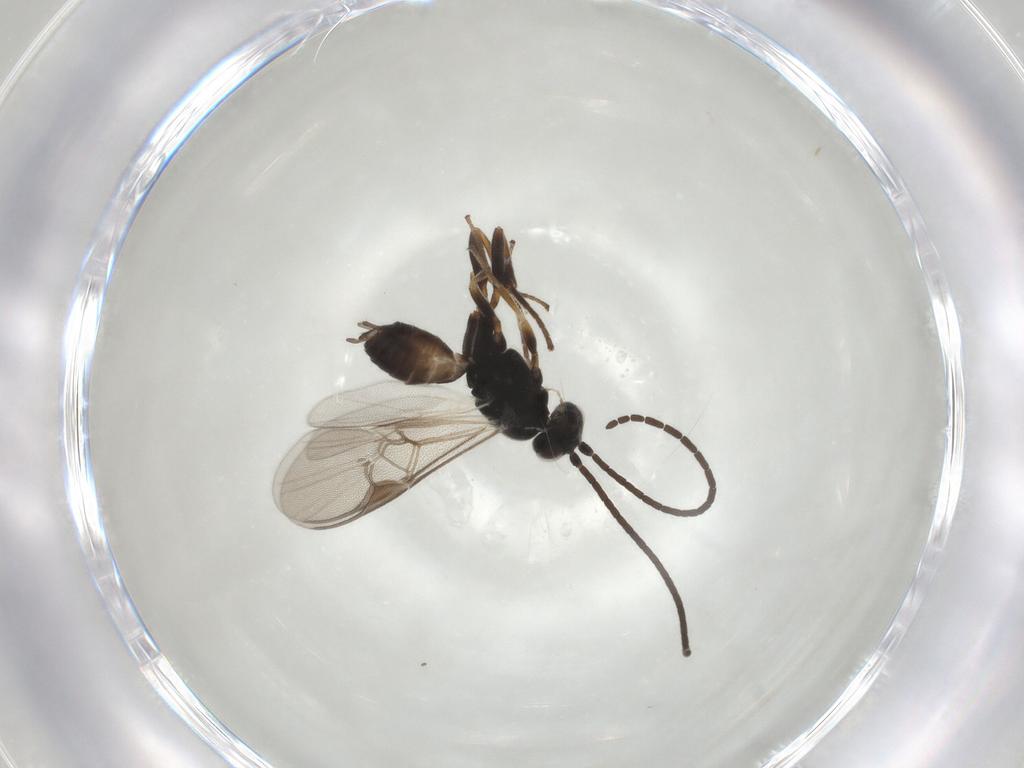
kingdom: Animalia
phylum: Arthropoda
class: Insecta
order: Hymenoptera
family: Braconidae
